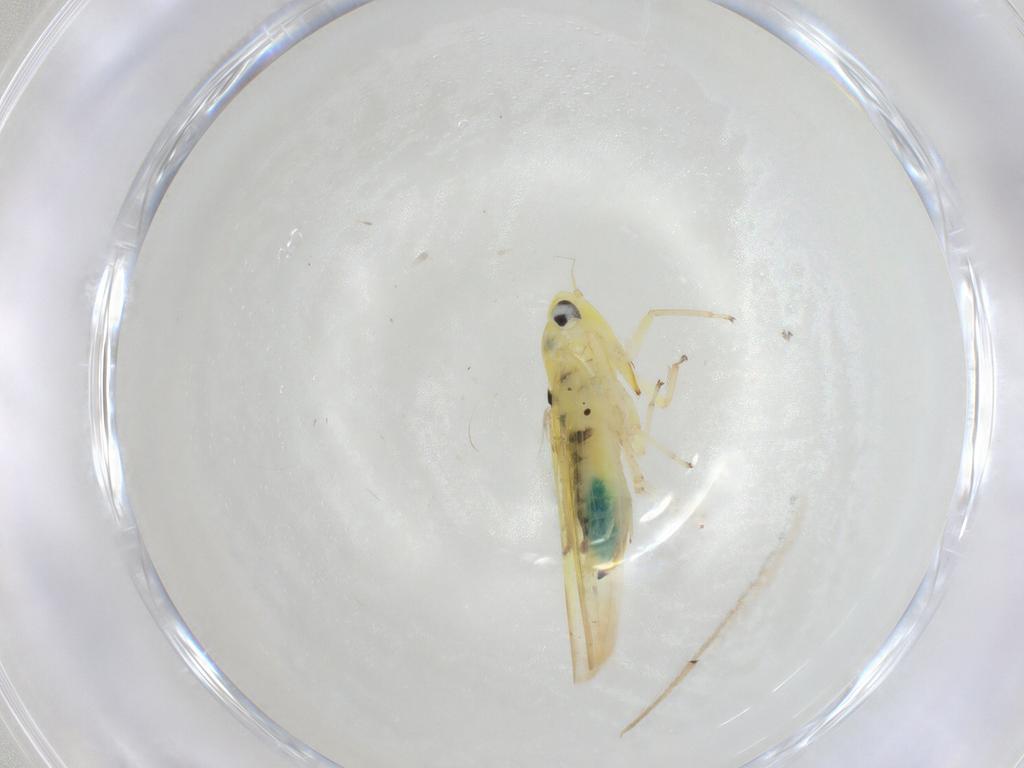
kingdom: Animalia
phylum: Arthropoda
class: Insecta
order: Hemiptera
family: Cicadellidae
